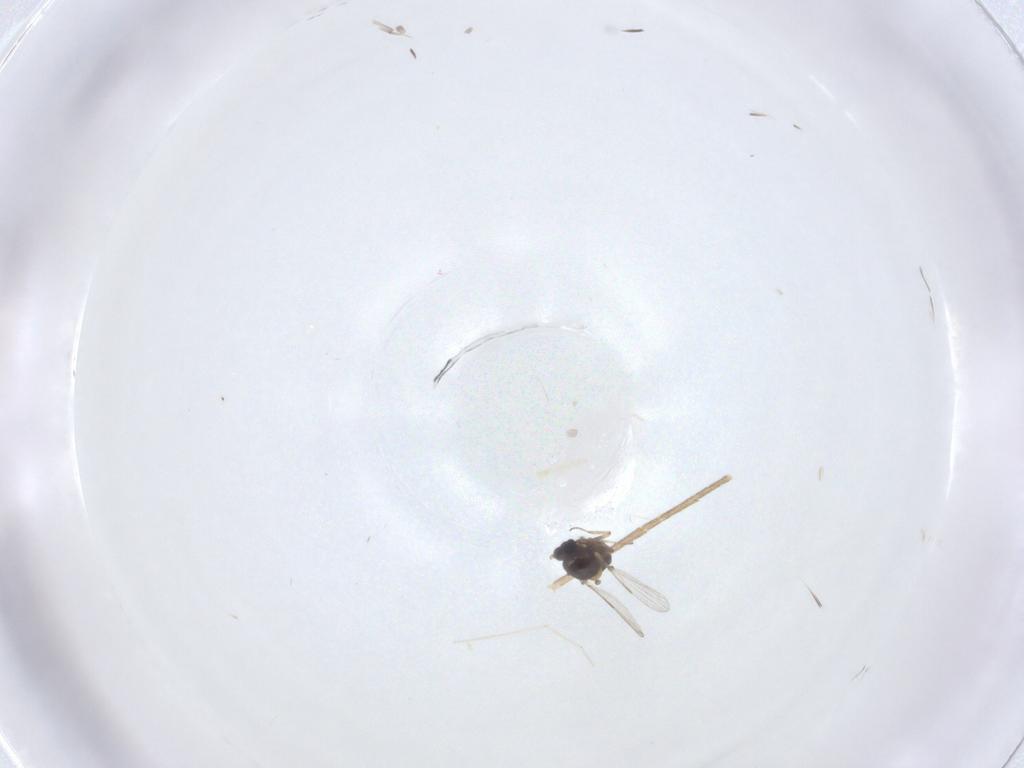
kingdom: Animalia
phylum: Arthropoda
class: Insecta
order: Diptera
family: Mycetophilidae
